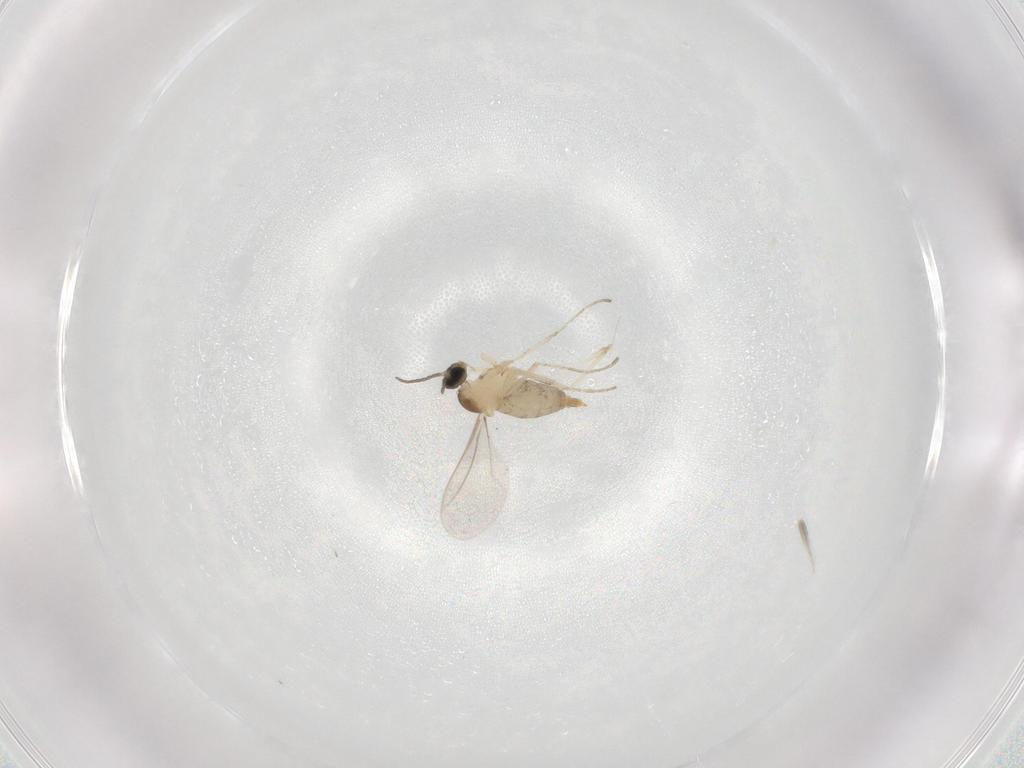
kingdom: Animalia
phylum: Arthropoda
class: Insecta
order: Diptera
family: Cecidomyiidae
